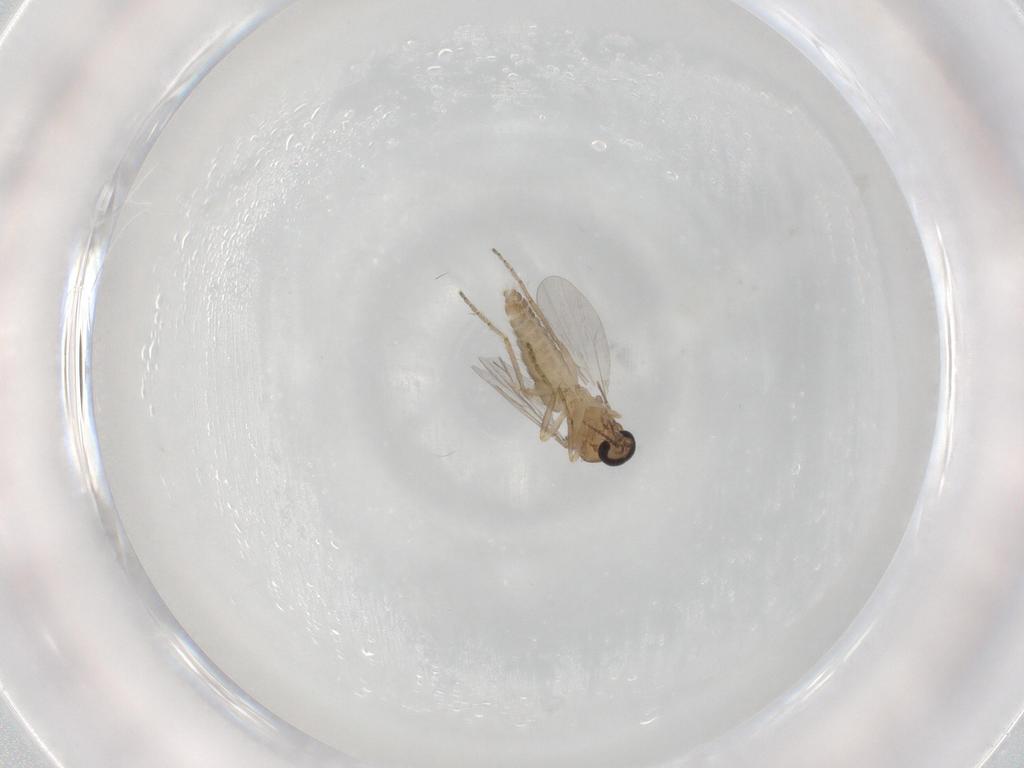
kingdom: Animalia
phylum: Arthropoda
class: Insecta
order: Diptera
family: Ceratopogonidae
